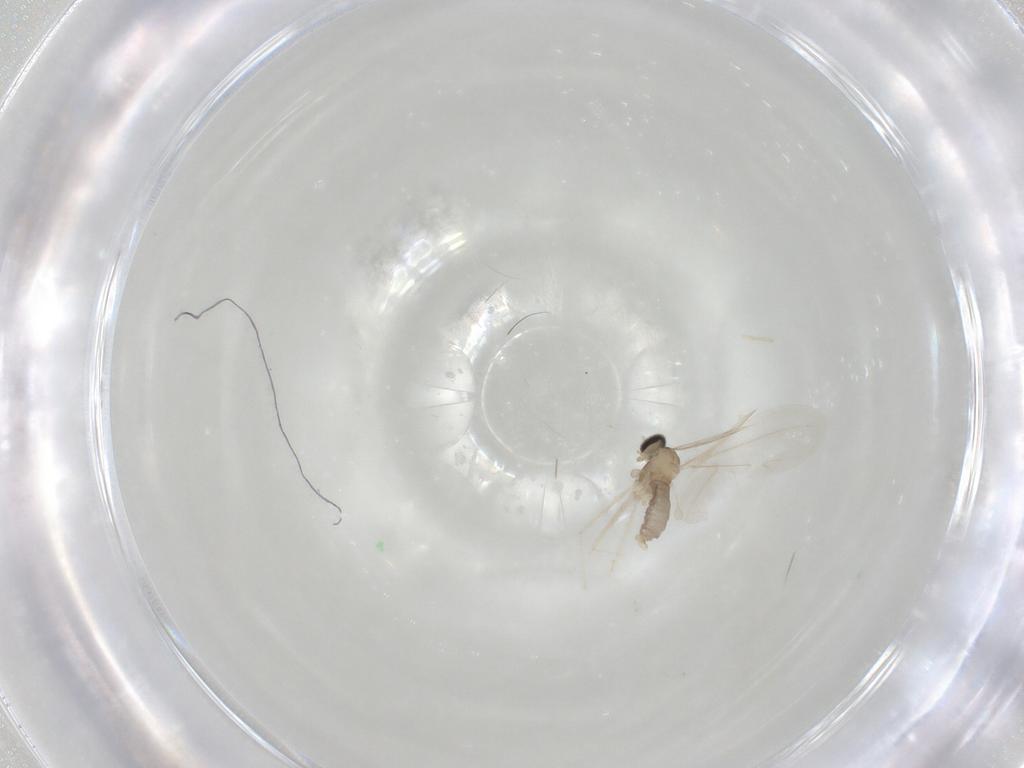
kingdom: Animalia
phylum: Arthropoda
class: Insecta
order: Diptera
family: Cecidomyiidae
